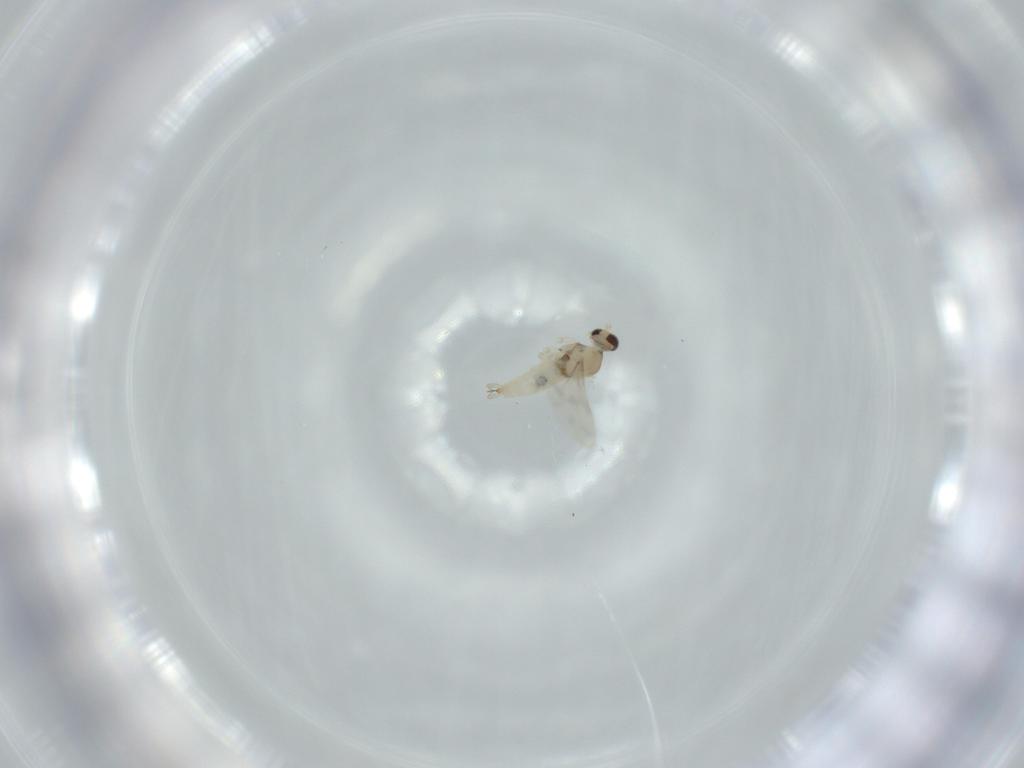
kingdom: Animalia
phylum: Arthropoda
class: Insecta
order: Diptera
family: Cecidomyiidae
